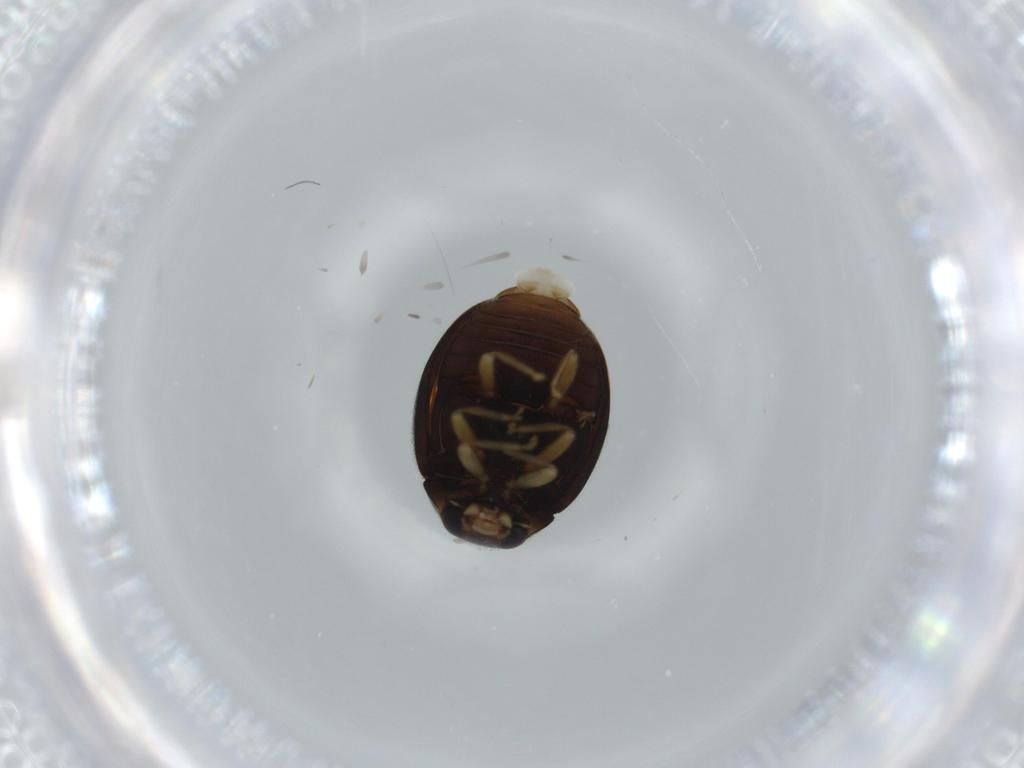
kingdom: Animalia
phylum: Arthropoda
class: Insecta
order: Coleoptera
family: Coccinellidae
